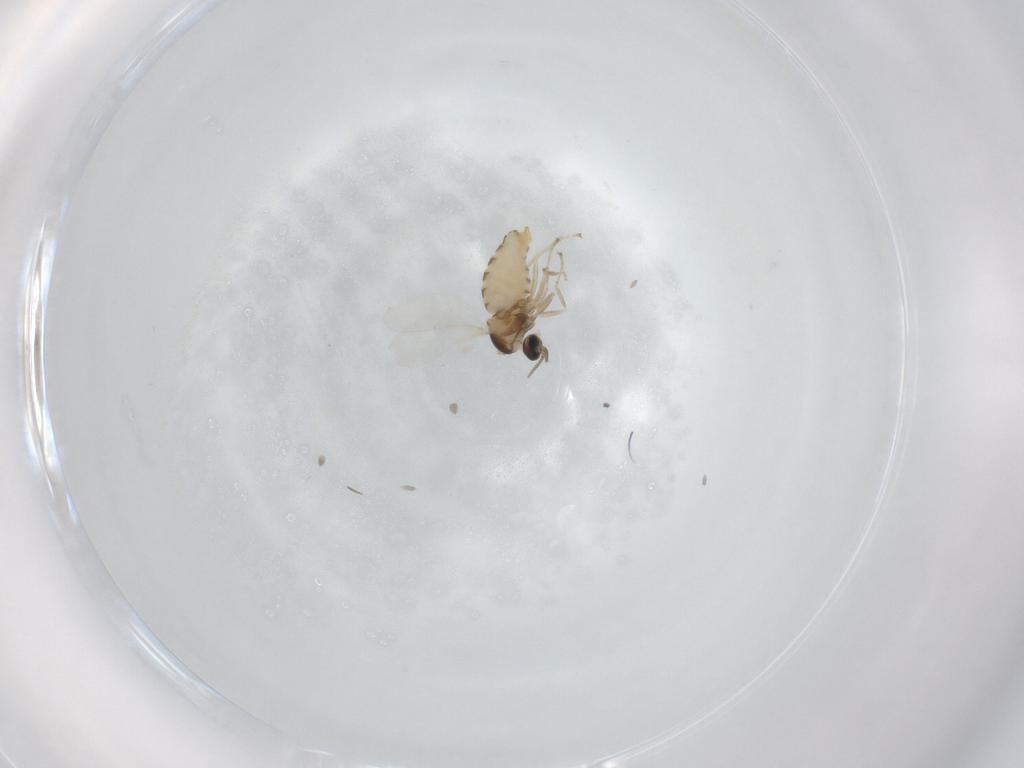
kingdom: Animalia
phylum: Arthropoda
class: Insecta
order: Diptera
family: Cecidomyiidae
